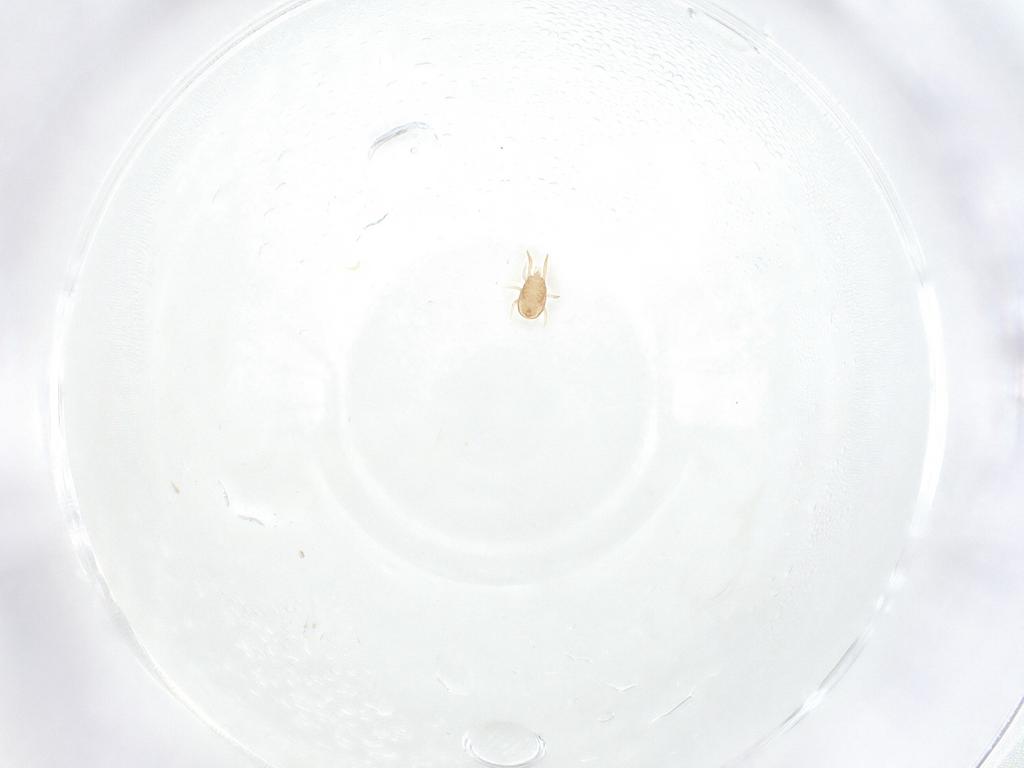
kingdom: Animalia
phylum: Arthropoda
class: Arachnida
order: Mesostigmata
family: Ameroseiidae
